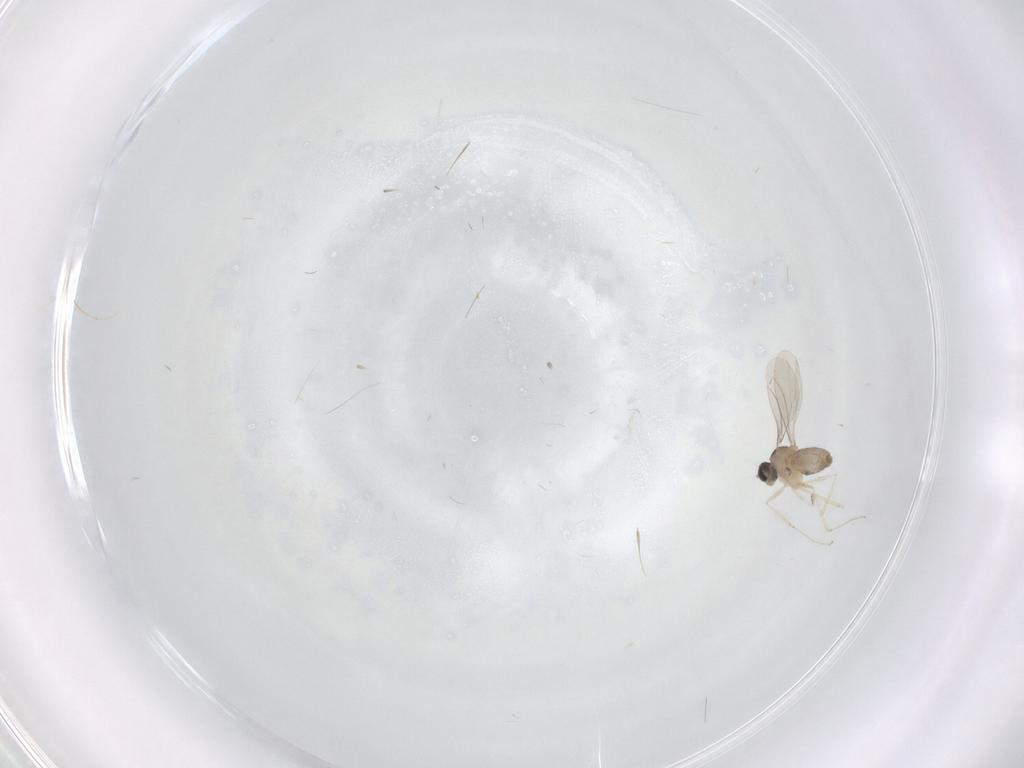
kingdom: Animalia
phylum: Arthropoda
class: Insecta
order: Diptera
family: Cecidomyiidae
